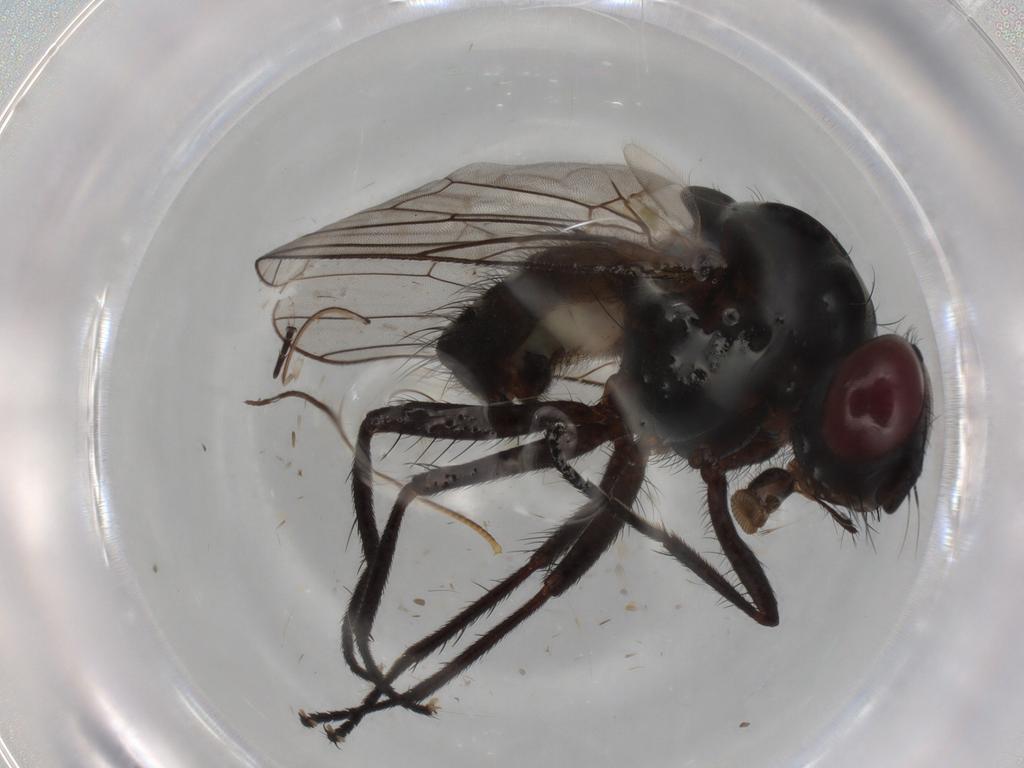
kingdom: Animalia
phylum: Arthropoda
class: Insecta
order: Diptera
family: Anthomyiidae
